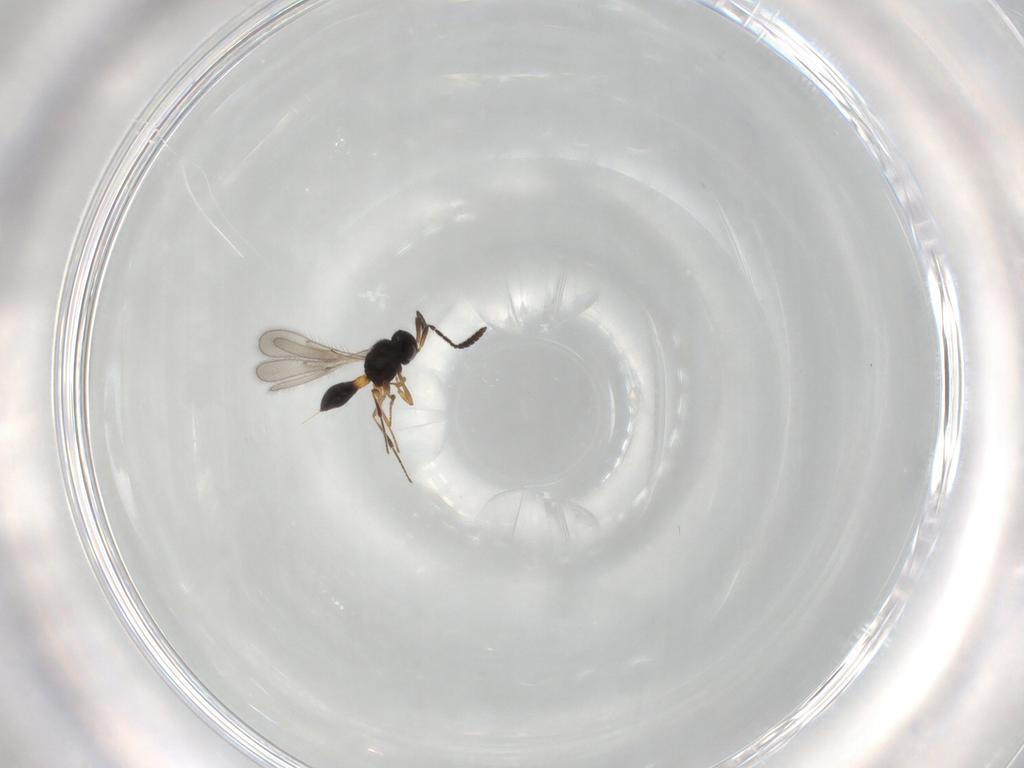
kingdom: Animalia
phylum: Arthropoda
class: Insecta
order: Hymenoptera
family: Scelionidae
